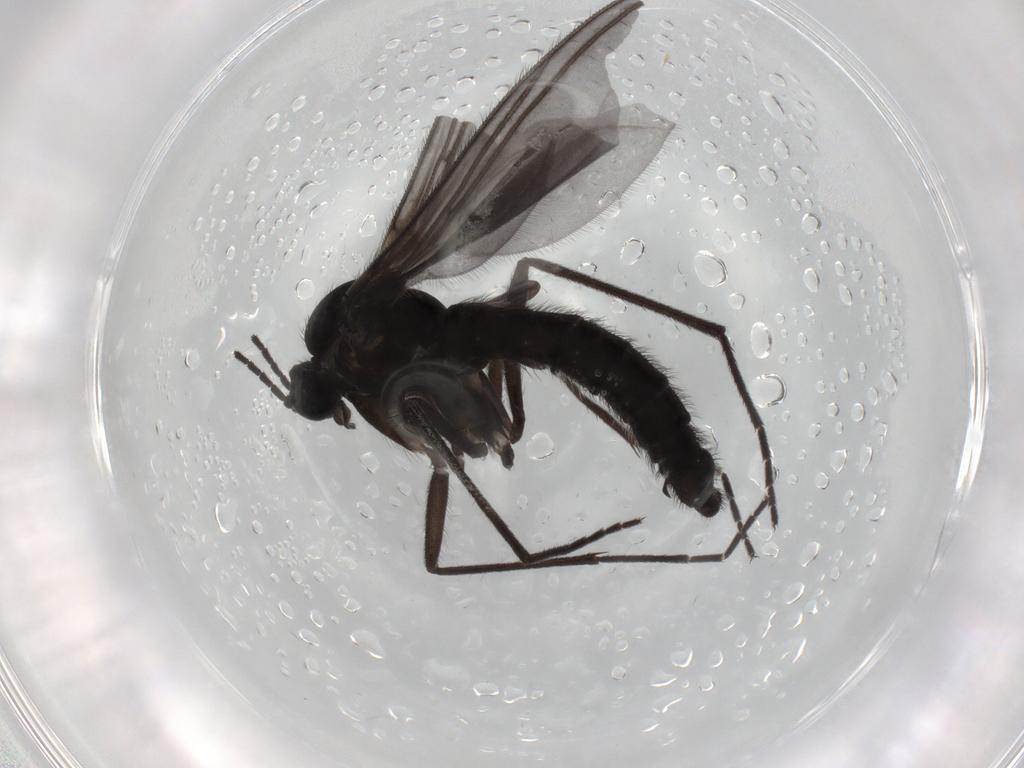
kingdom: Animalia
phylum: Arthropoda
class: Insecta
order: Diptera
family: Sciaridae
